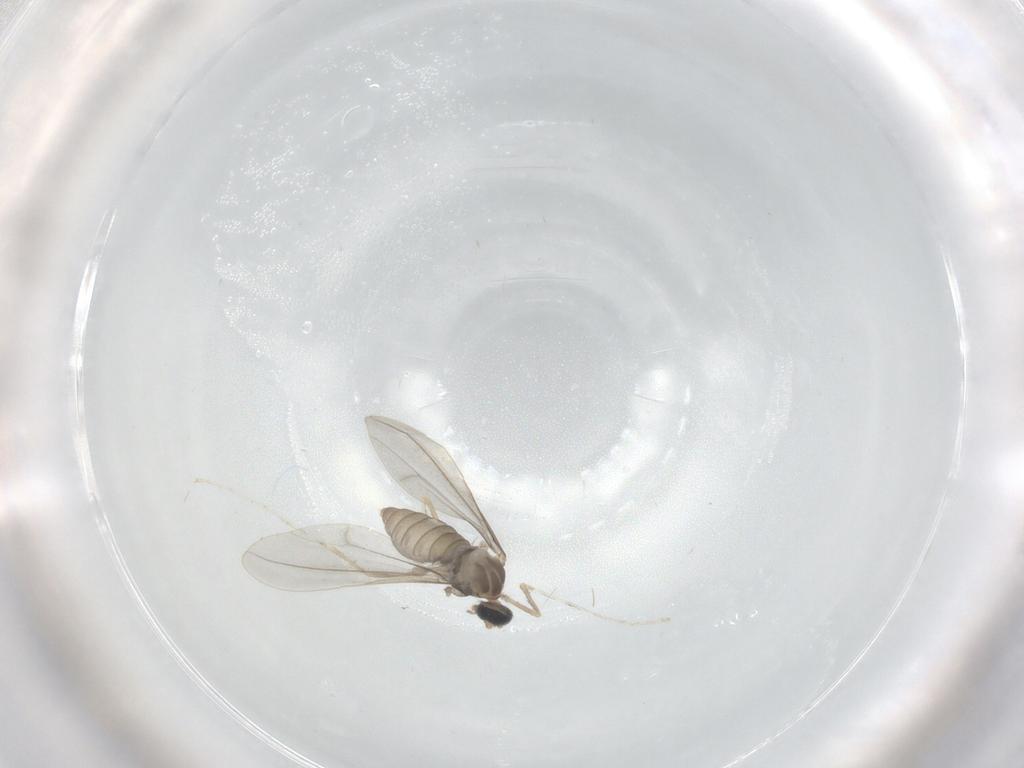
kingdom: Animalia
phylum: Arthropoda
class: Insecta
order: Diptera
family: Cecidomyiidae
